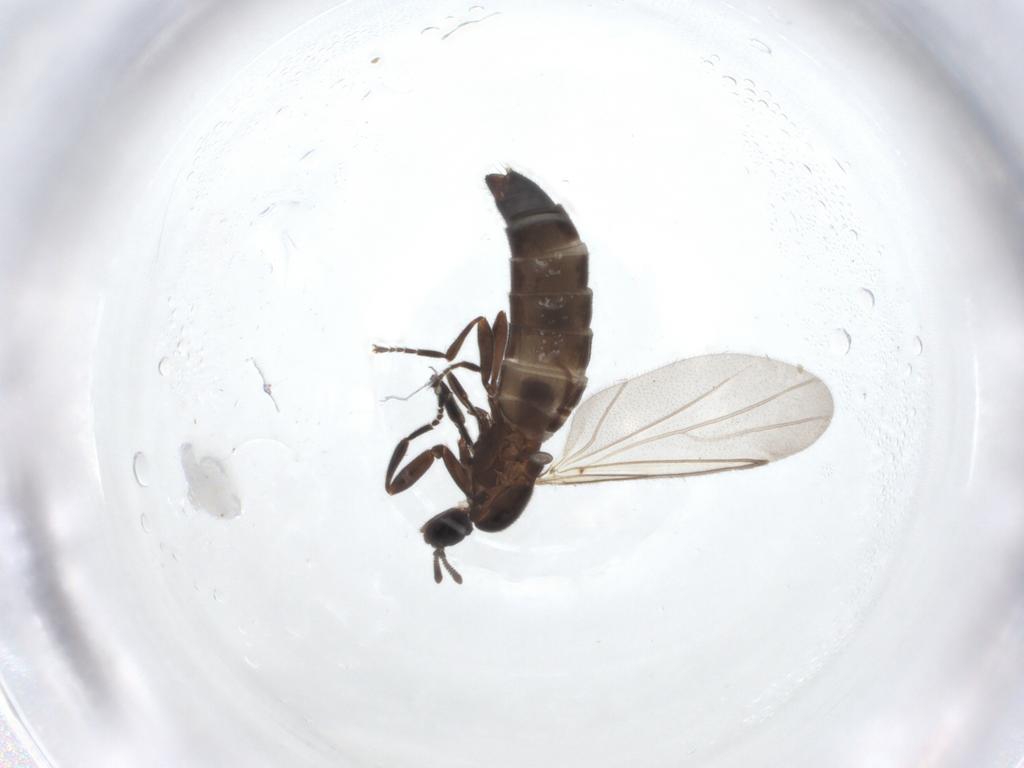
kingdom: Animalia
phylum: Arthropoda
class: Insecta
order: Diptera
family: Scatopsidae
